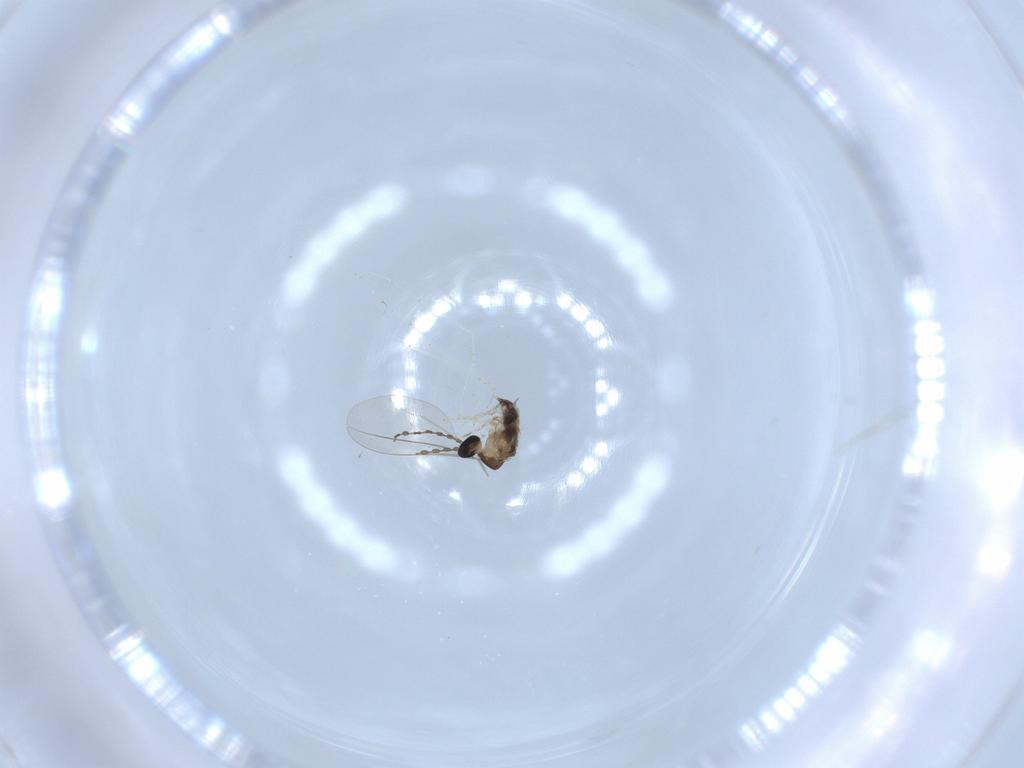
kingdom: Animalia
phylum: Arthropoda
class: Insecta
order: Diptera
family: Cecidomyiidae
